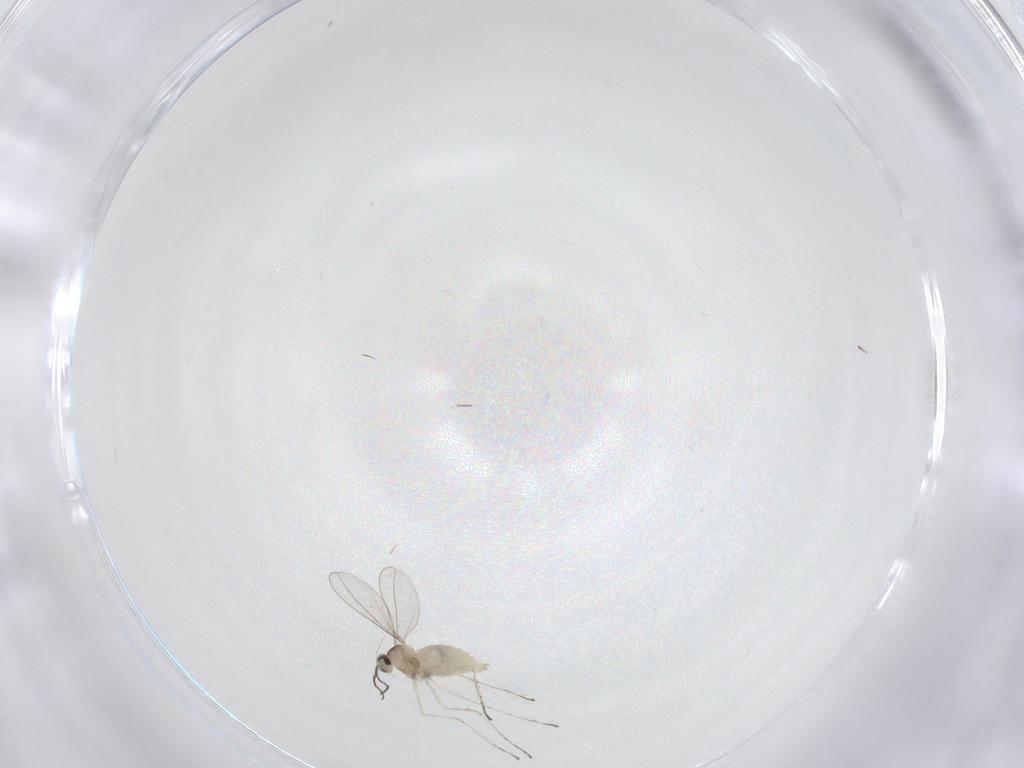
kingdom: Animalia
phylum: Arthropoda
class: Insecta
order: Diptera
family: Cecidomyiidae
